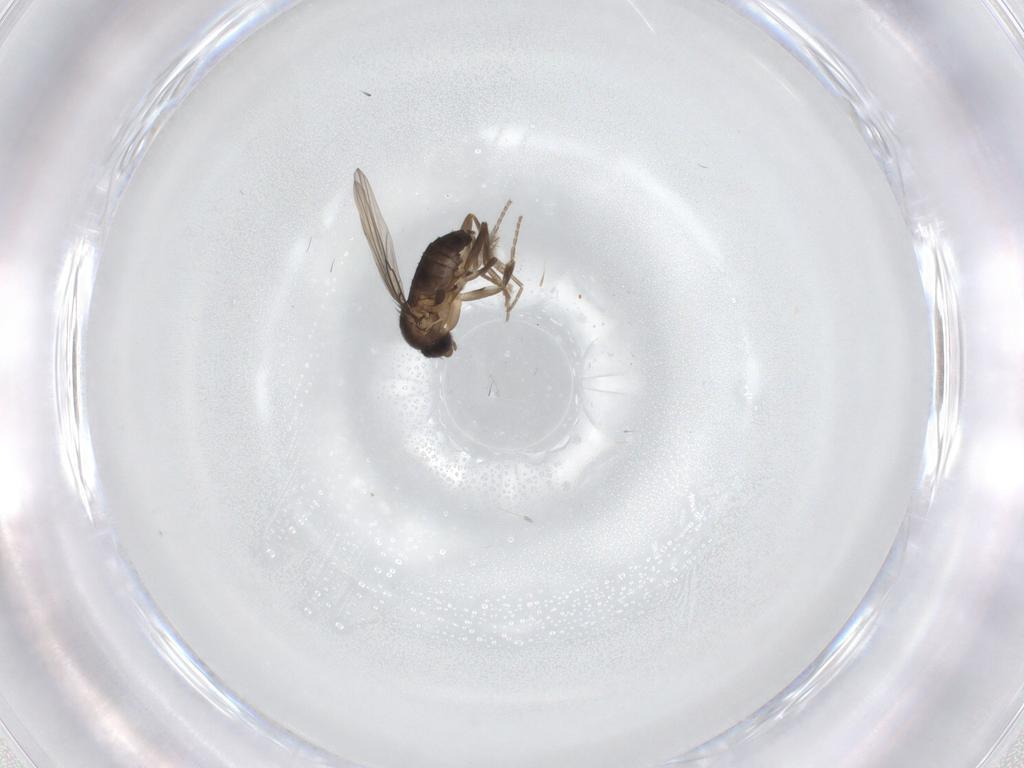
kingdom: Animalia
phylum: Arthropoda
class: Insecta
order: Diptera
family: Phoridae
